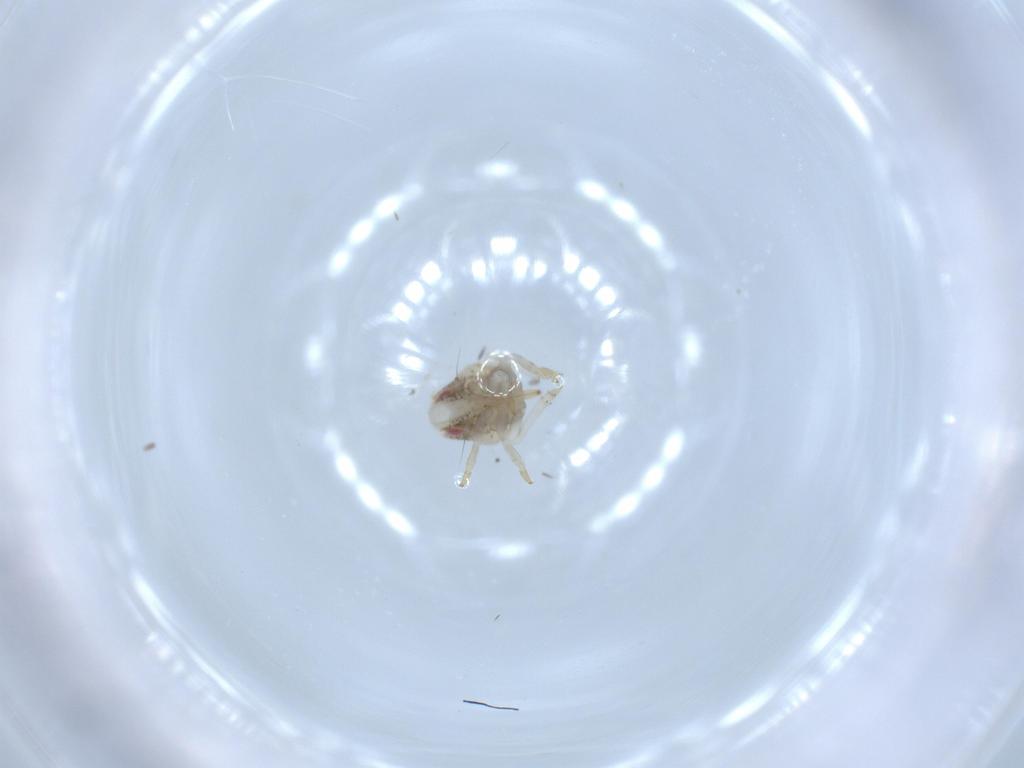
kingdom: Animalia
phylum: Arthropoda
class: Insecta
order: Hemiptera
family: Acanaloniidae
